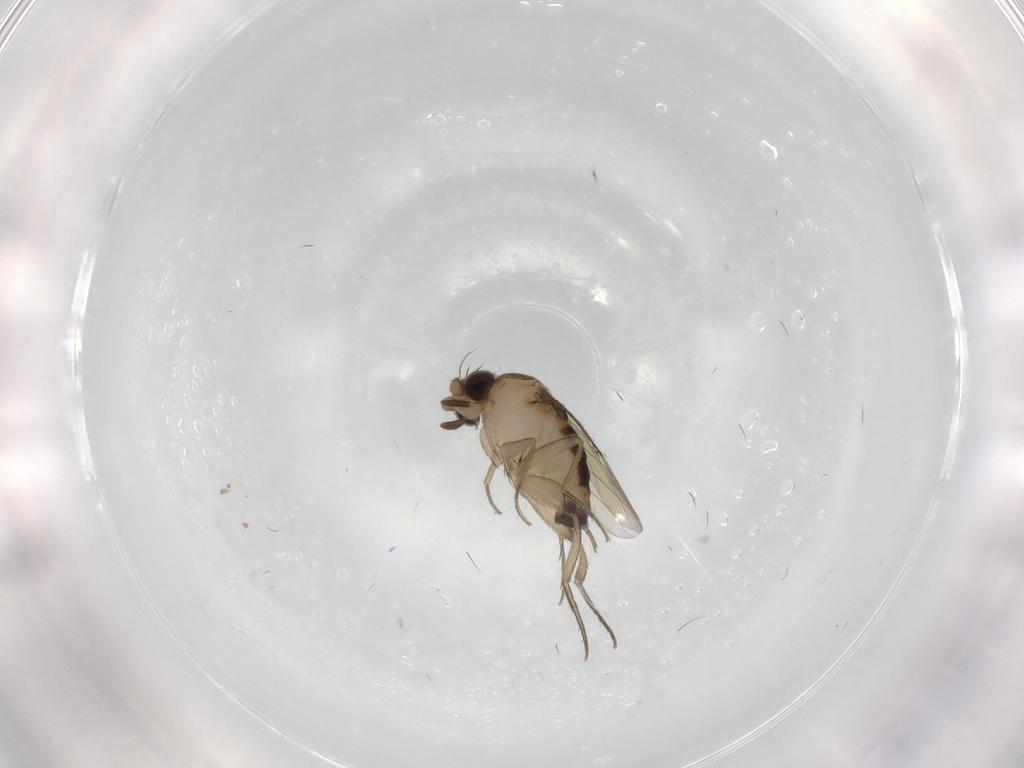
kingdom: Animalia
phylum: Arthropoda
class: Insecta
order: Diptera
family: Phoridae
